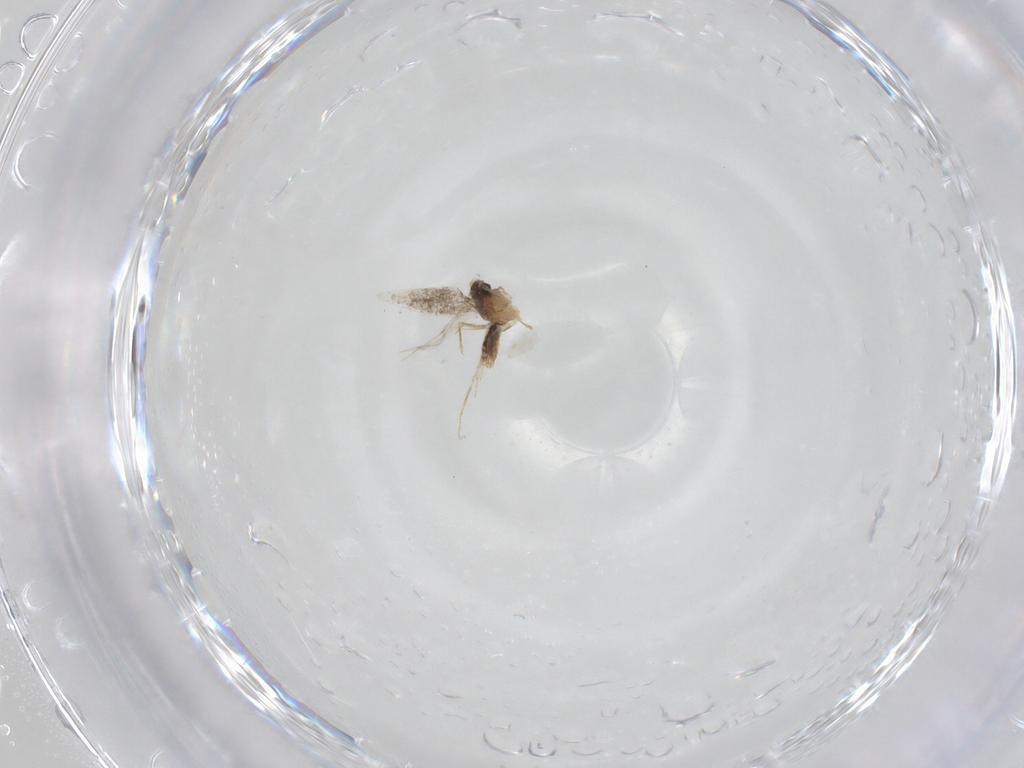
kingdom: Animalia
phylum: Arthropoda
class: Insecta
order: Lepidoptera
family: Nepticulidae
